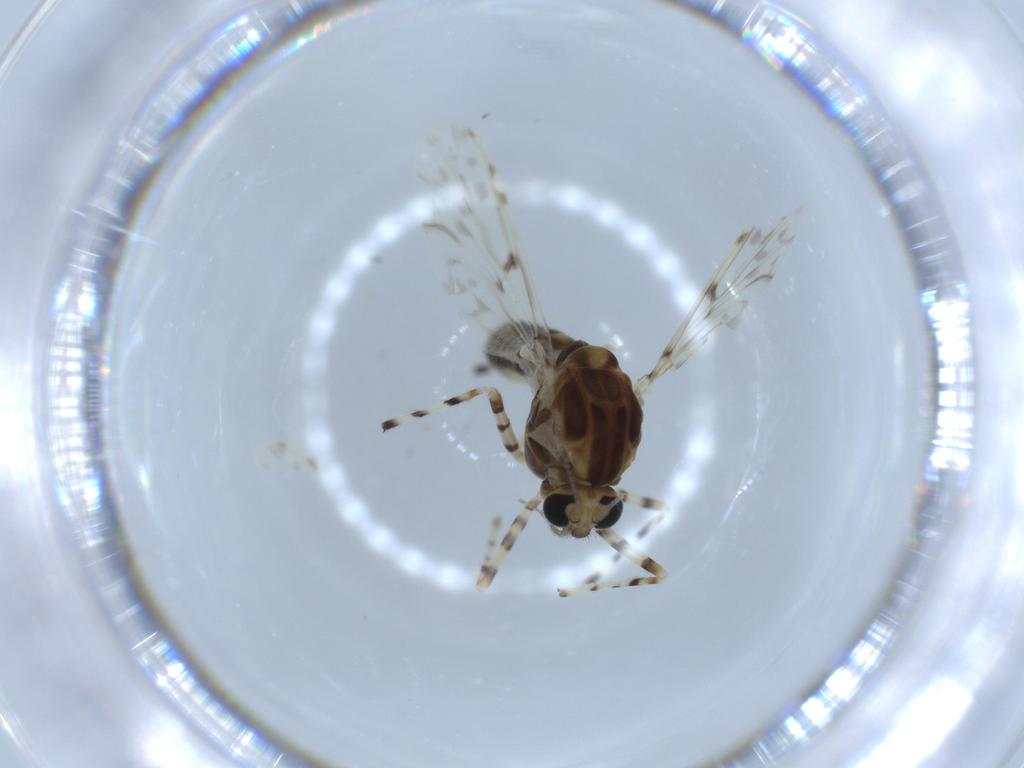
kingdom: Animalia
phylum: Arthropoda
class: Insecta
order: Diptera
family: Chironomidae
